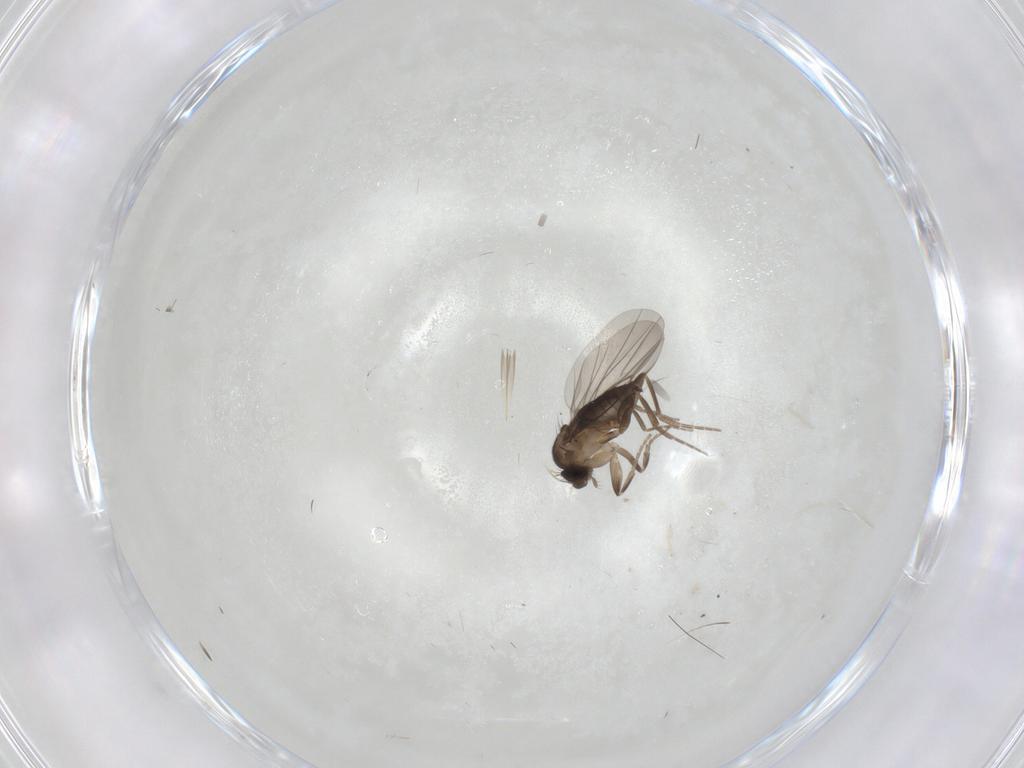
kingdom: Animalia
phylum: Arthropoda
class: Insecta
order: Diptera
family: Phoridae
